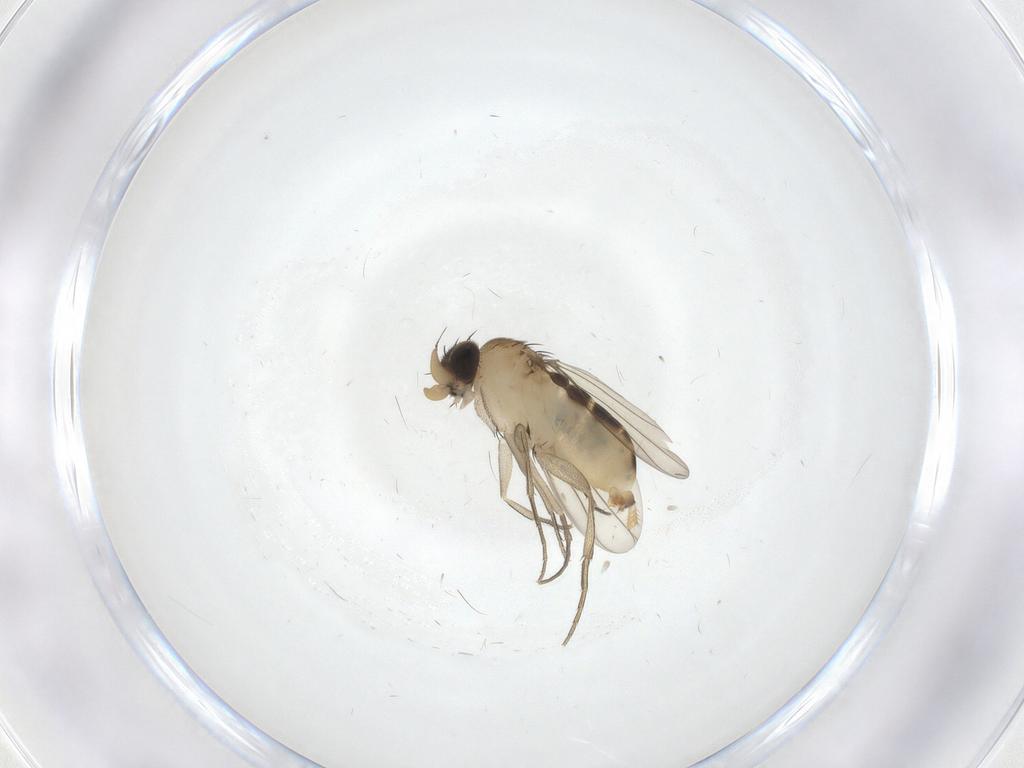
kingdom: Animalia
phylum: Arthropoda
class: Insecta
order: Diptera
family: Phoridae
